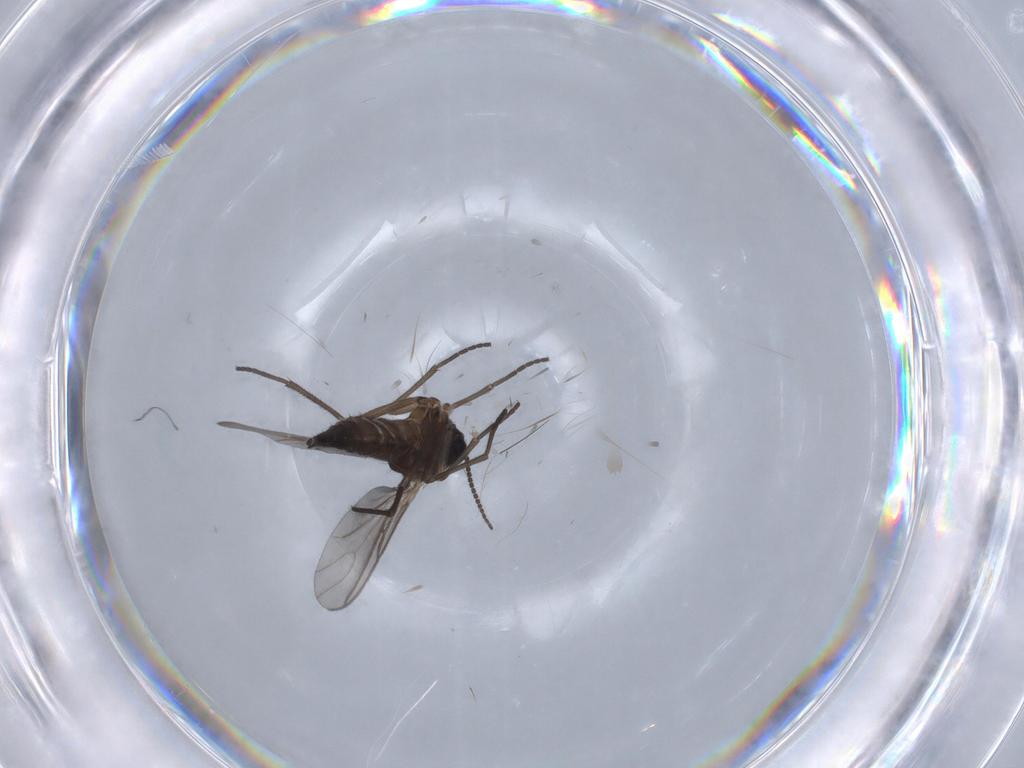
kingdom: Animalia
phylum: Arthropoda
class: Insecta
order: Diptera
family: Sciaridae
